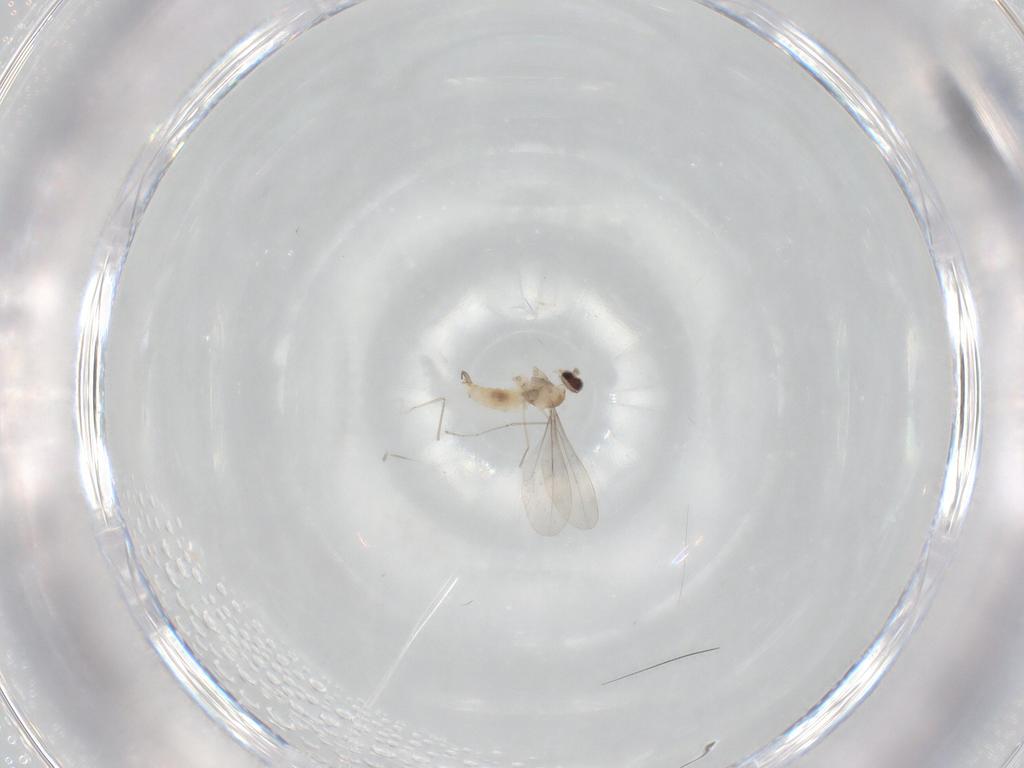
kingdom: Animalia
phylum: Arthropoda
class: Insecta
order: Diptera
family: Cecidomyiidae
